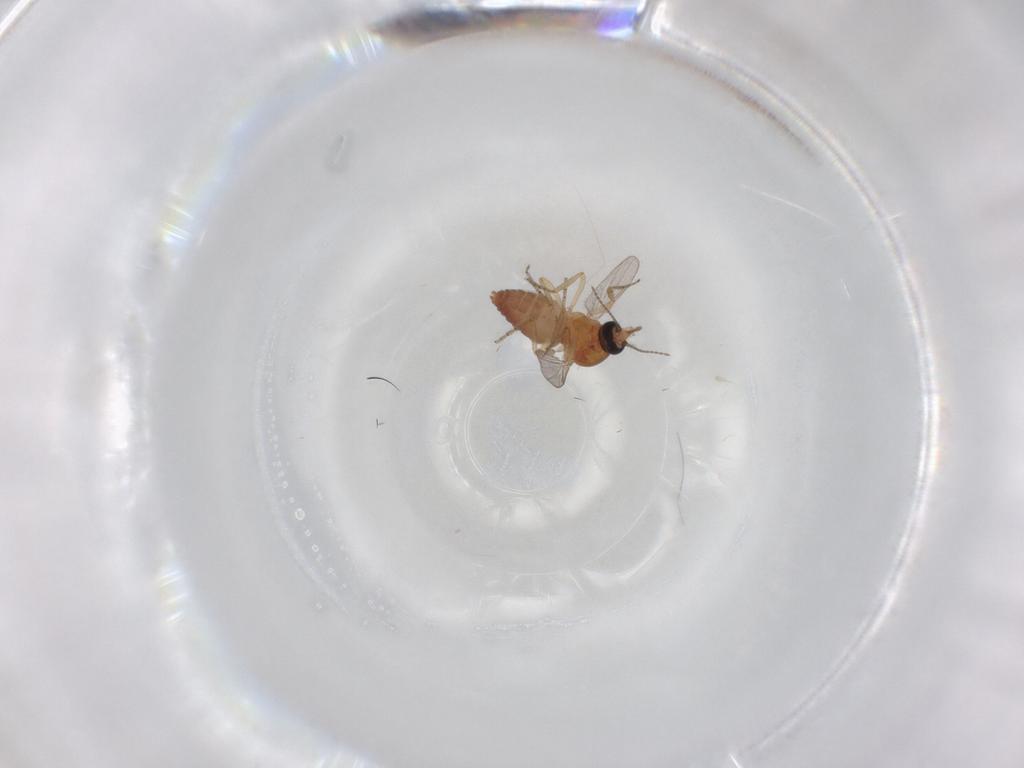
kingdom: Animalia
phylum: Arthropoda
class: Insecta
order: Diptera
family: Ceratopogonidae
